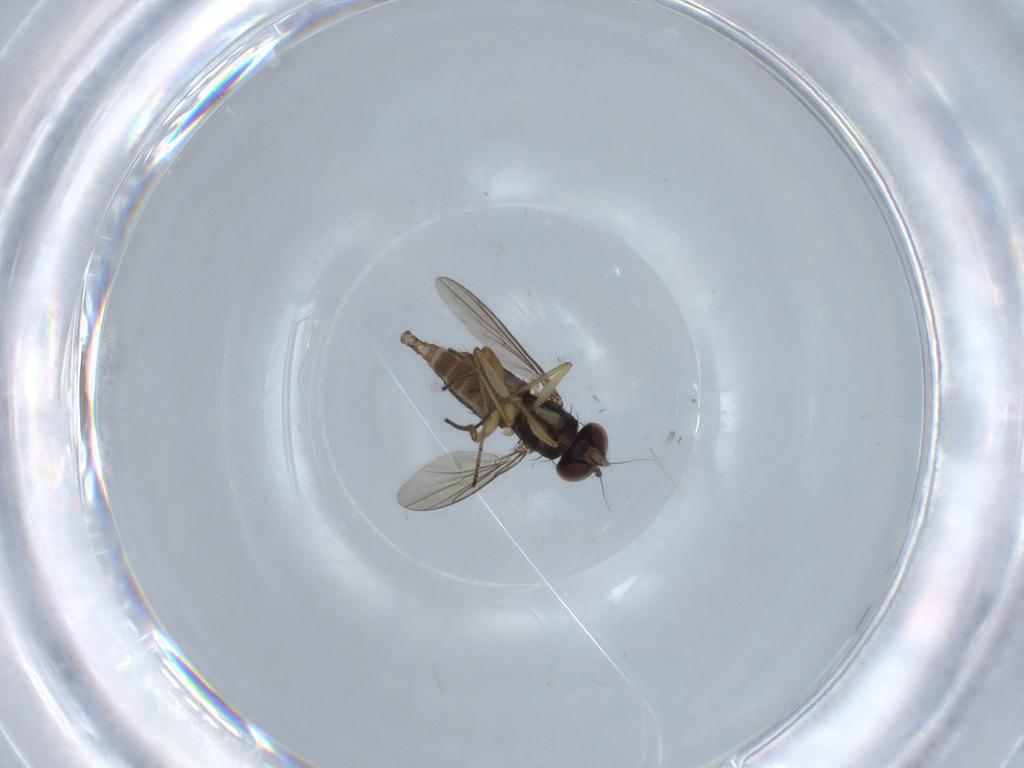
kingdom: Animalia
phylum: Arthropoda
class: Insecta
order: Diptera
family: Dolichopodidae
